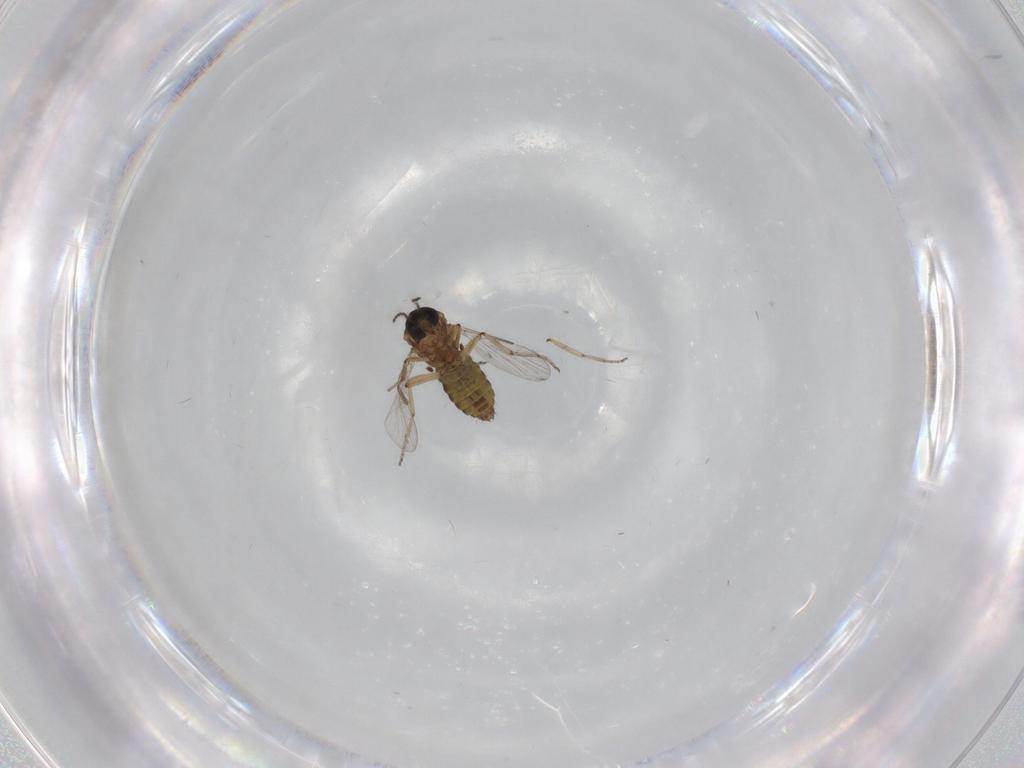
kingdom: Animalia
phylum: Arthropoda
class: Insecta
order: Diptera
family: Ceratopogonidae
